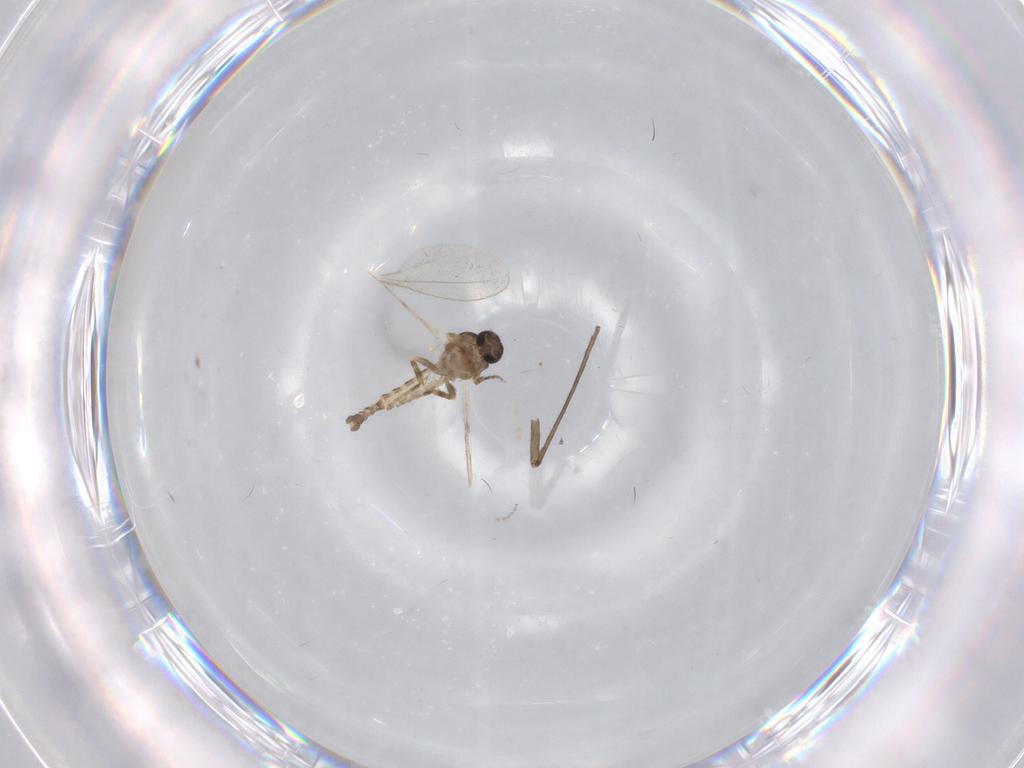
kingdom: Animalia
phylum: Arthropoda
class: Insecta
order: Diptera
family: Ceratopogonidae
